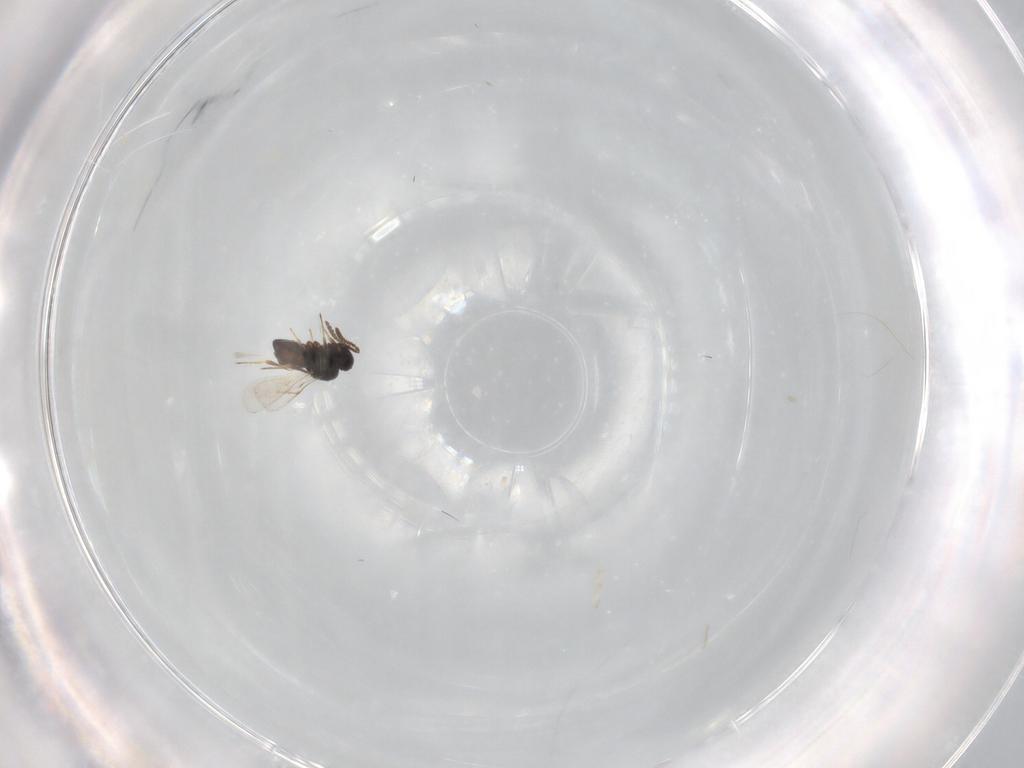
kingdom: Animalia
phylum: Arthropoda
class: Insecta
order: Hymenoptera
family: Scelionidae
